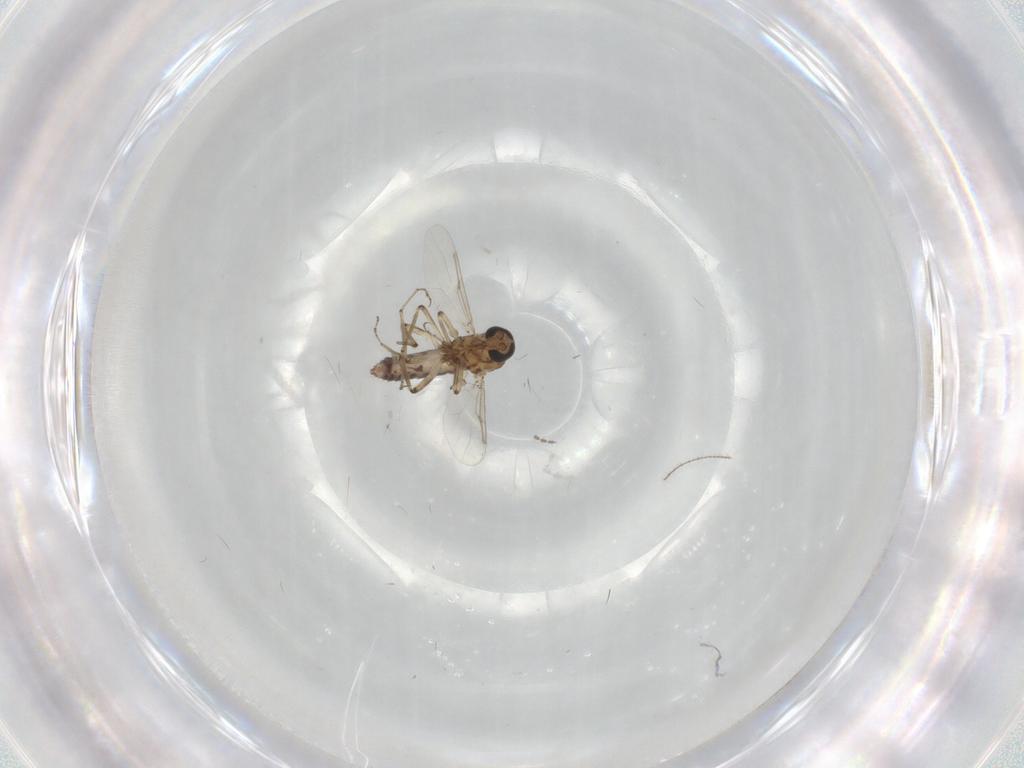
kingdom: Animalia
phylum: Arthropoda
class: Insecta
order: Diptera
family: Ceratopogonidae
